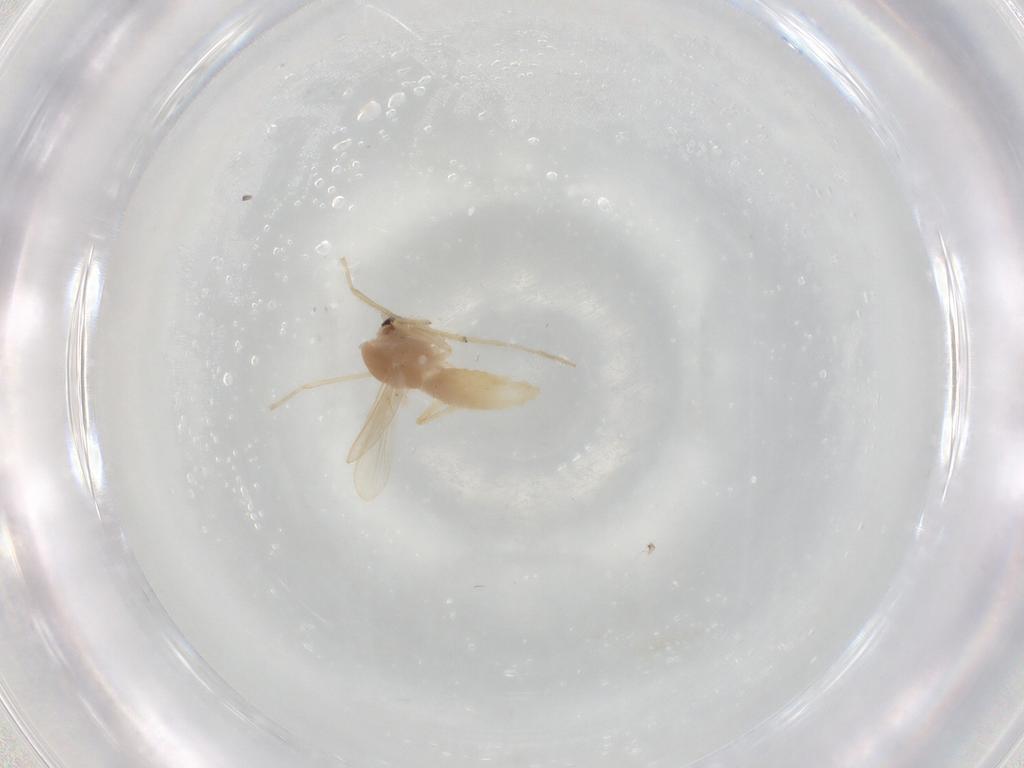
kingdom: Animalia
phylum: Arthropoda
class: Insecta
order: Diptera
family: Chironomidae
